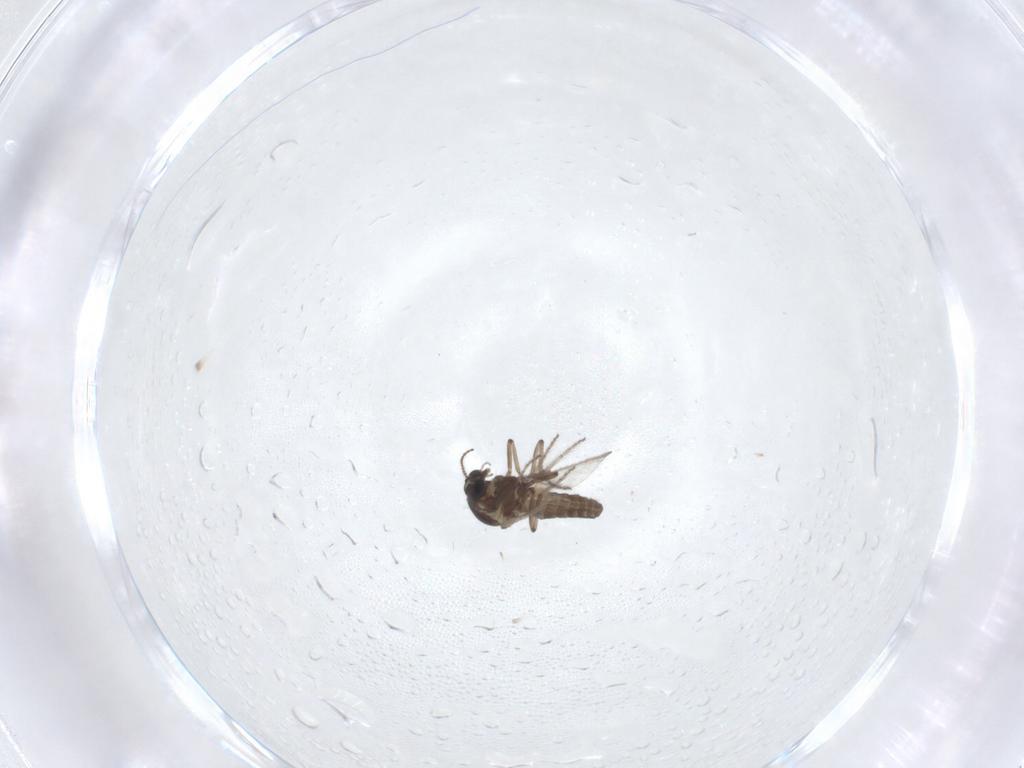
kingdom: Animalia
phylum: Arthropoda
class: Insecta
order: Diptera
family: Ceratopogonidae
